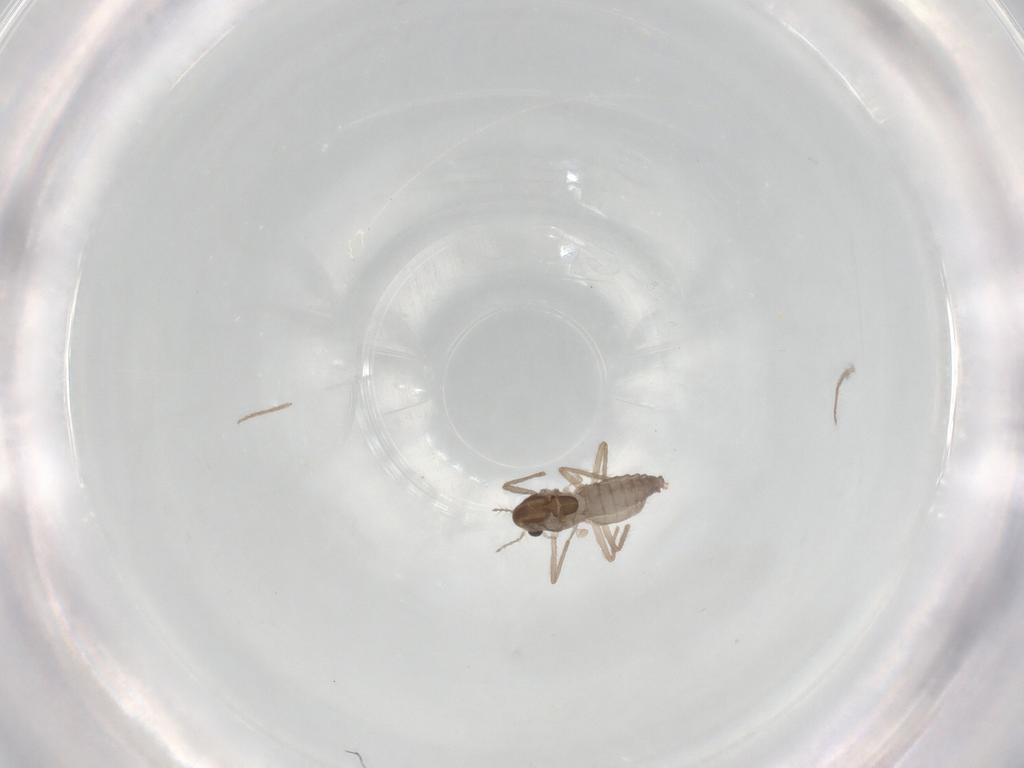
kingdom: Animalia
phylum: Arthropoda
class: Insecta
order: Diptera
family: Chironomidae
